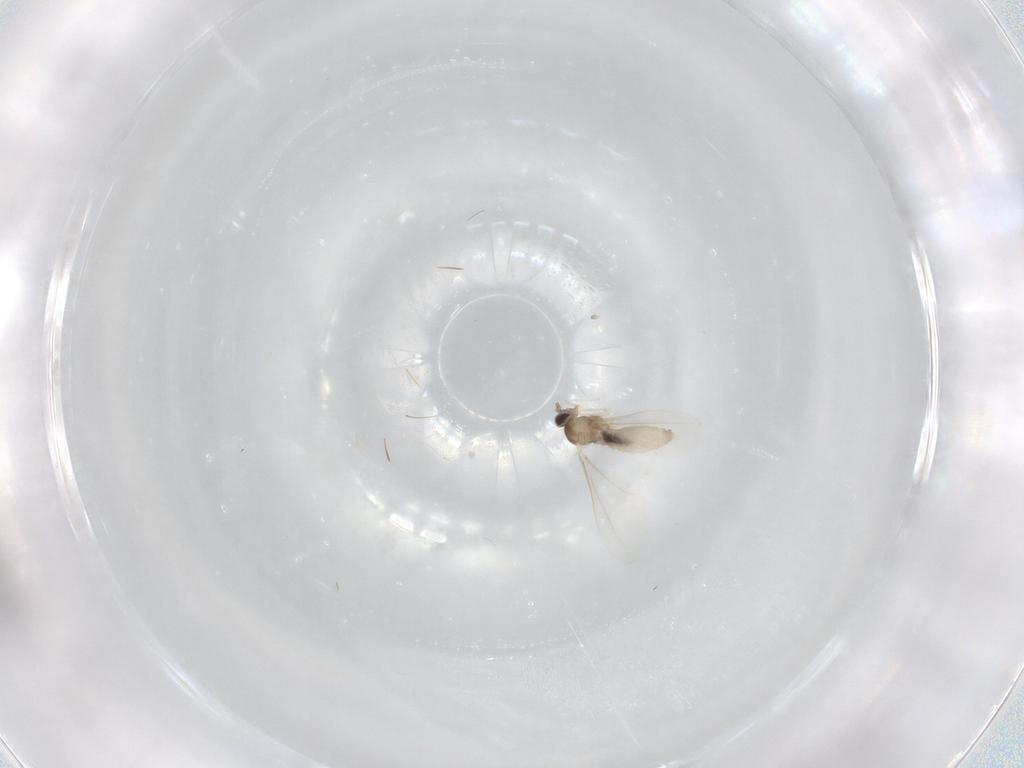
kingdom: Animalia
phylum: Arthropoda
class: Insecta
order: Diptera
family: Cecidomyiidae
